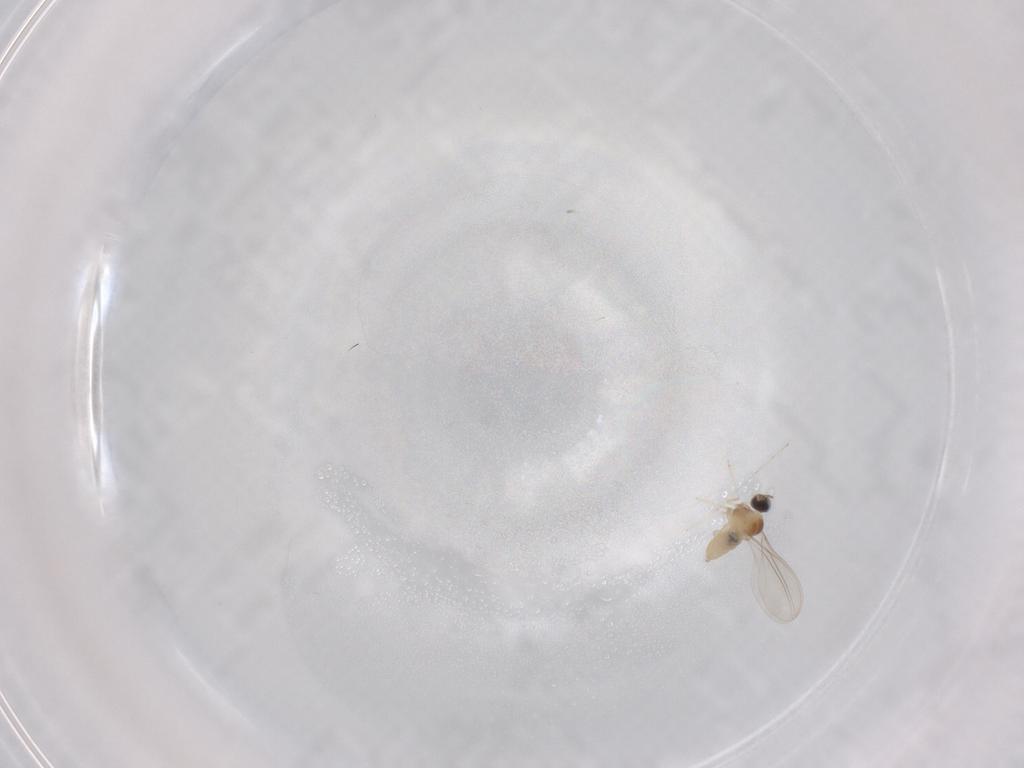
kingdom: Animalia
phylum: Arthropoda
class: Insecta
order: Diptera
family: Cecidomyiidae
